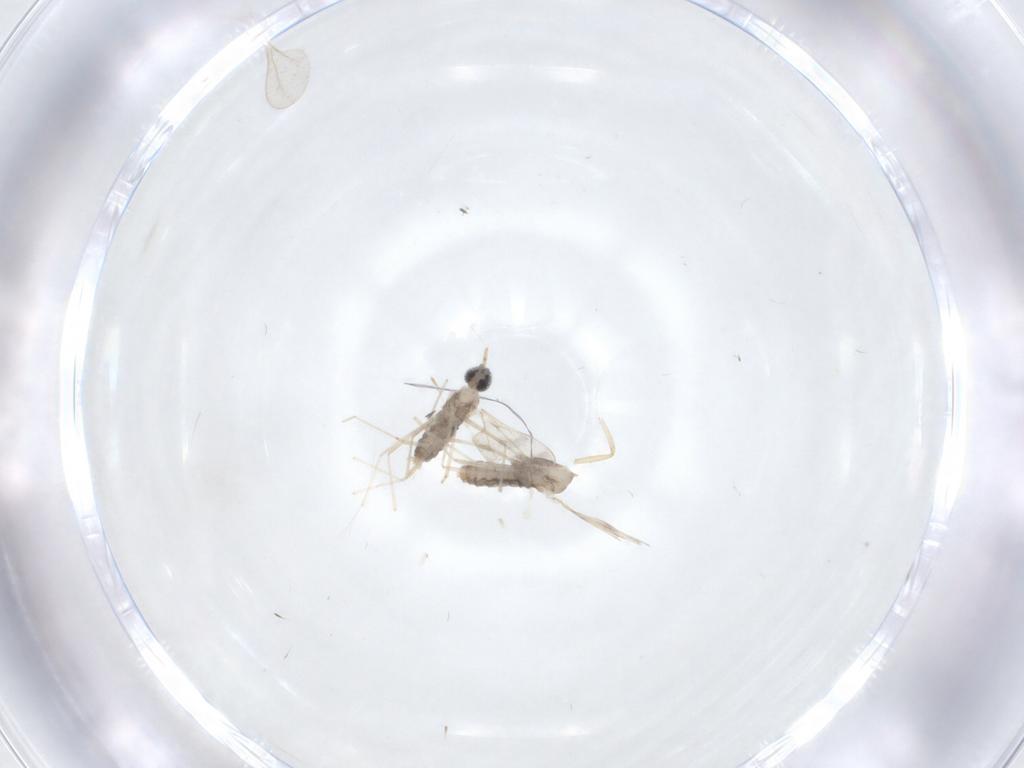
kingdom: Animalia
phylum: Arthropoda
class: Insecta
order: Diptera
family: Ceratopogonidae
